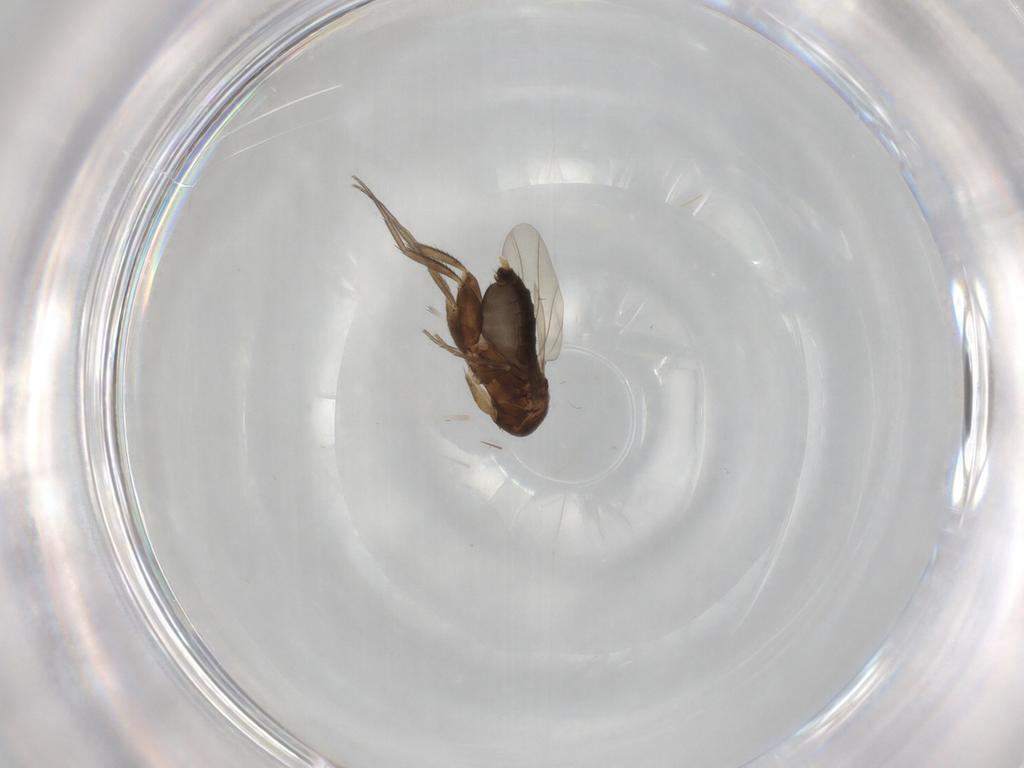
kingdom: Animalia
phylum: Arthropoda
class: Insecta
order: Diptera
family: Phoridae
